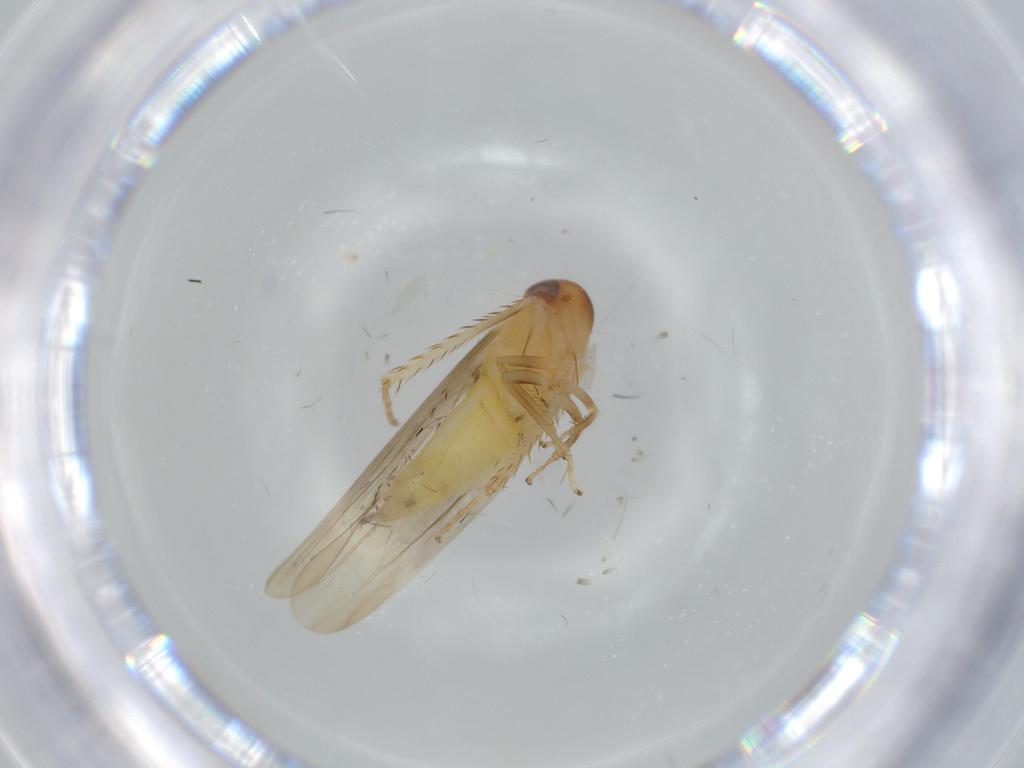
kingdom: Animalia
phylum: Arthropoda
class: Insecta
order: Hemiptera
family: Cicadellidae
